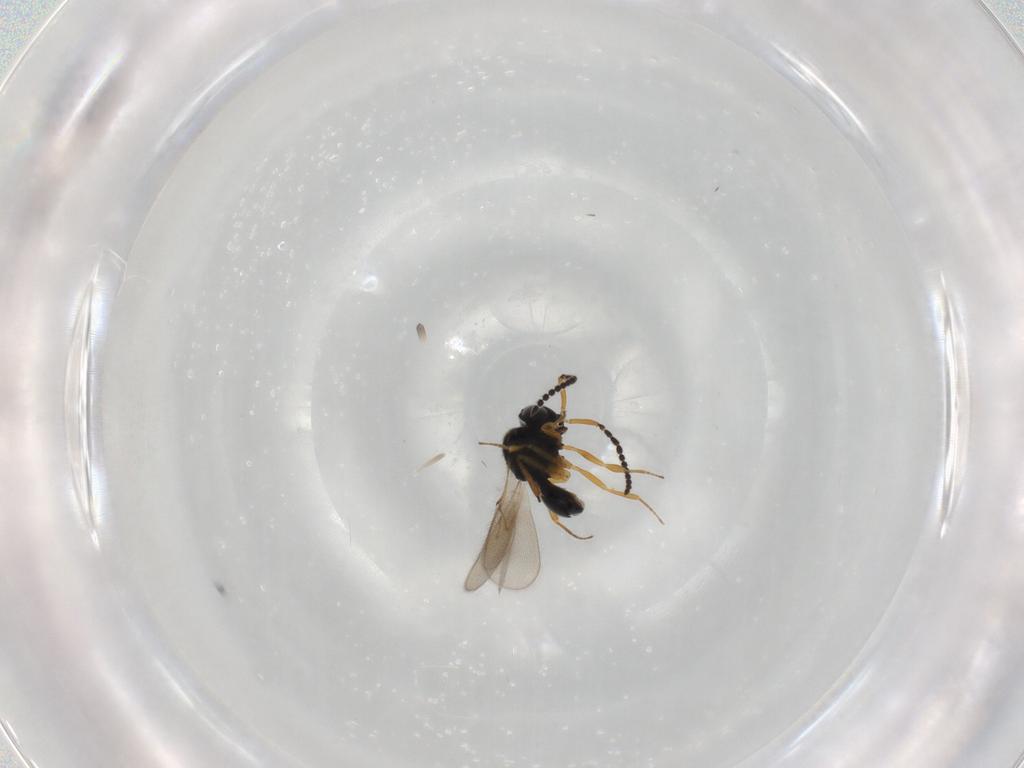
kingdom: Animalia
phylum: Arthropoda
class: Insecta
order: Hymenoptera
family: Scelionidae
